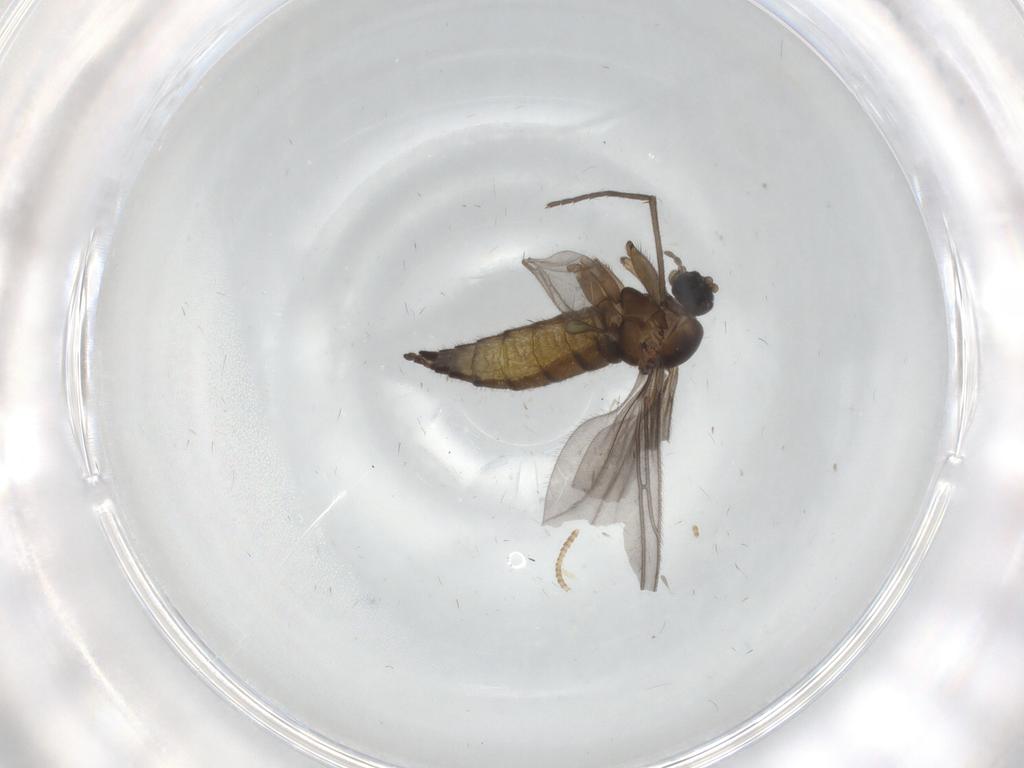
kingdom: Animalia
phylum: Arthropoda
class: Insecta
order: Diptera
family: Sciaridae
